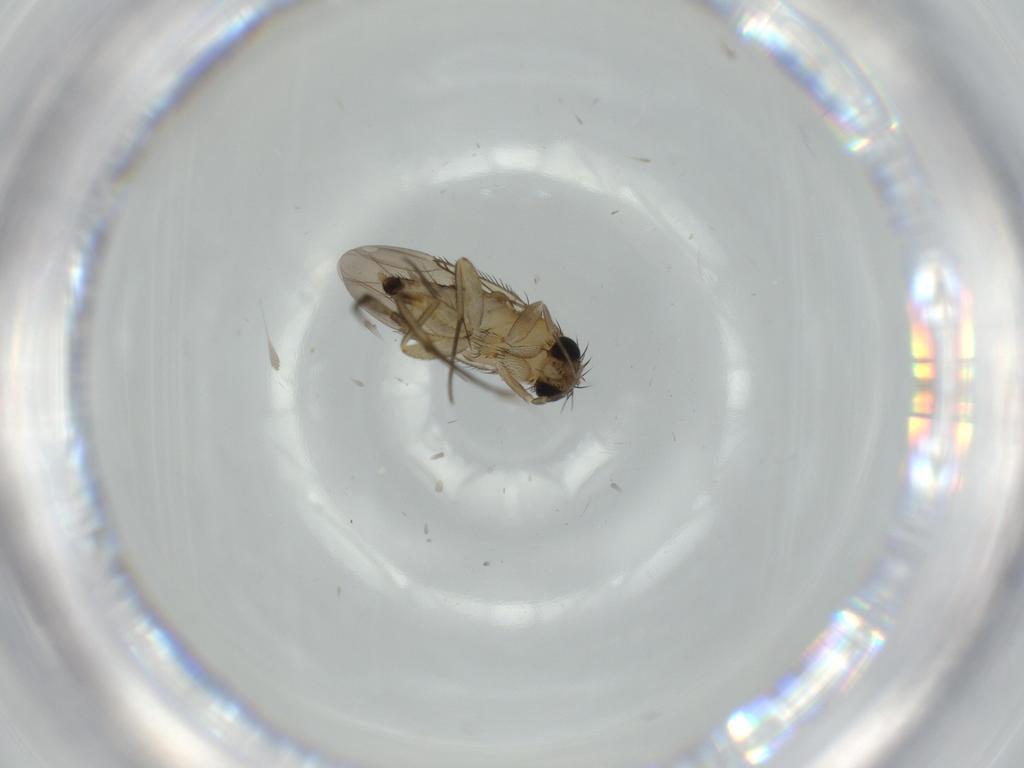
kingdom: Animalia
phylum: Arthropoda
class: Insecta
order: Diptera
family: Phoridae
